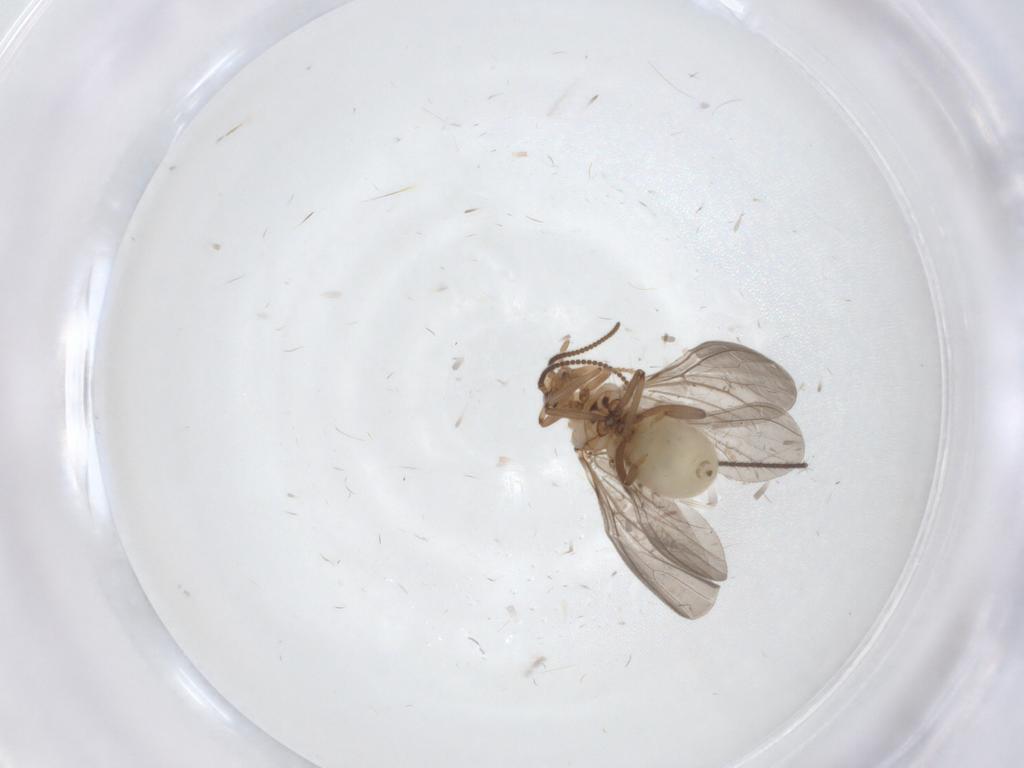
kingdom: Animalia
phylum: Arthropoda
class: Insecta
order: Neuroptera
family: Coniopterygidae
